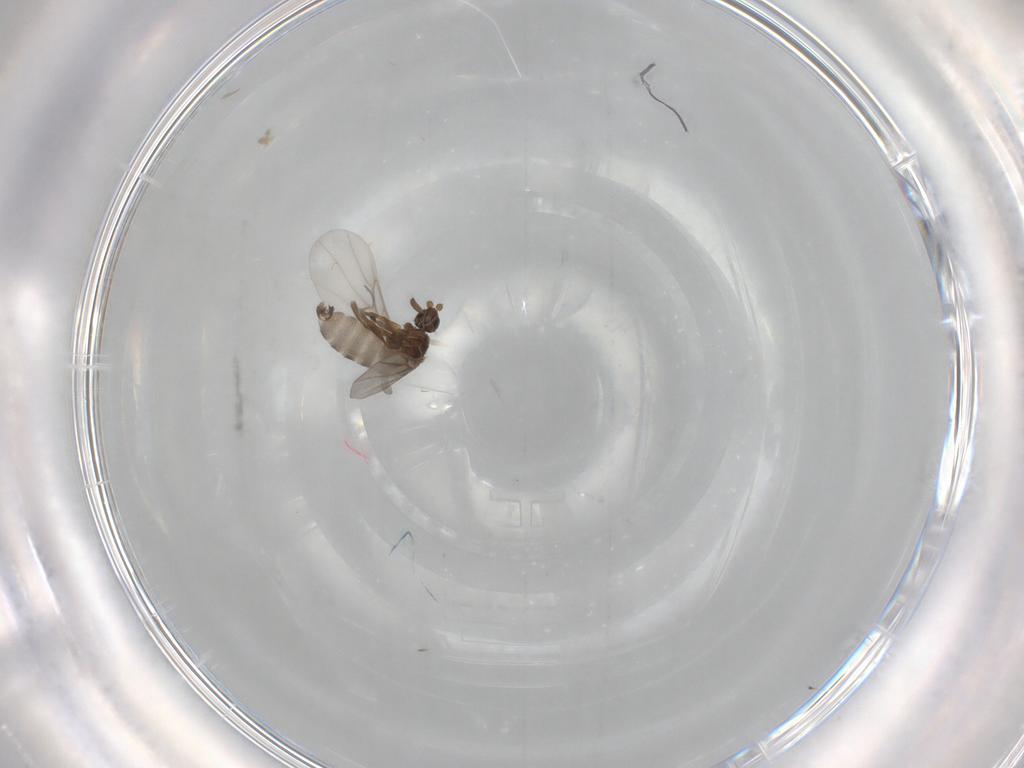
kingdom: Animalia
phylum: Arthropoda
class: Insecta
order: Diptera
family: Phoridae
